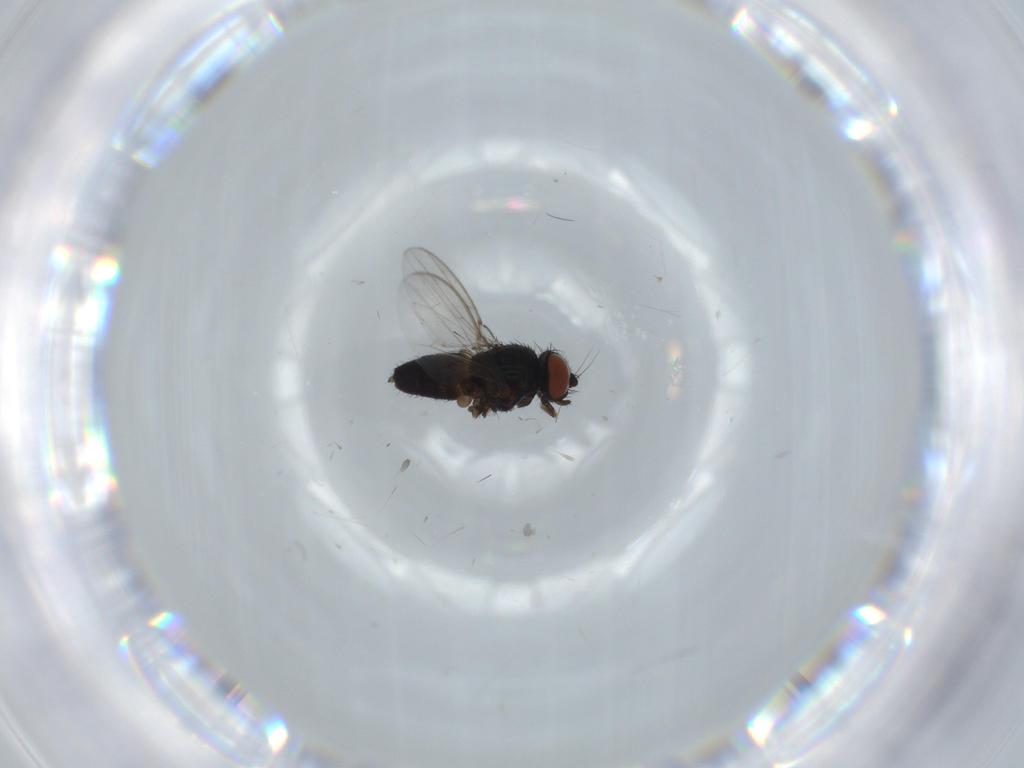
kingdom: Animalia
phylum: Arthropoda
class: Insecta
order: Diptera
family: Milichiidae
